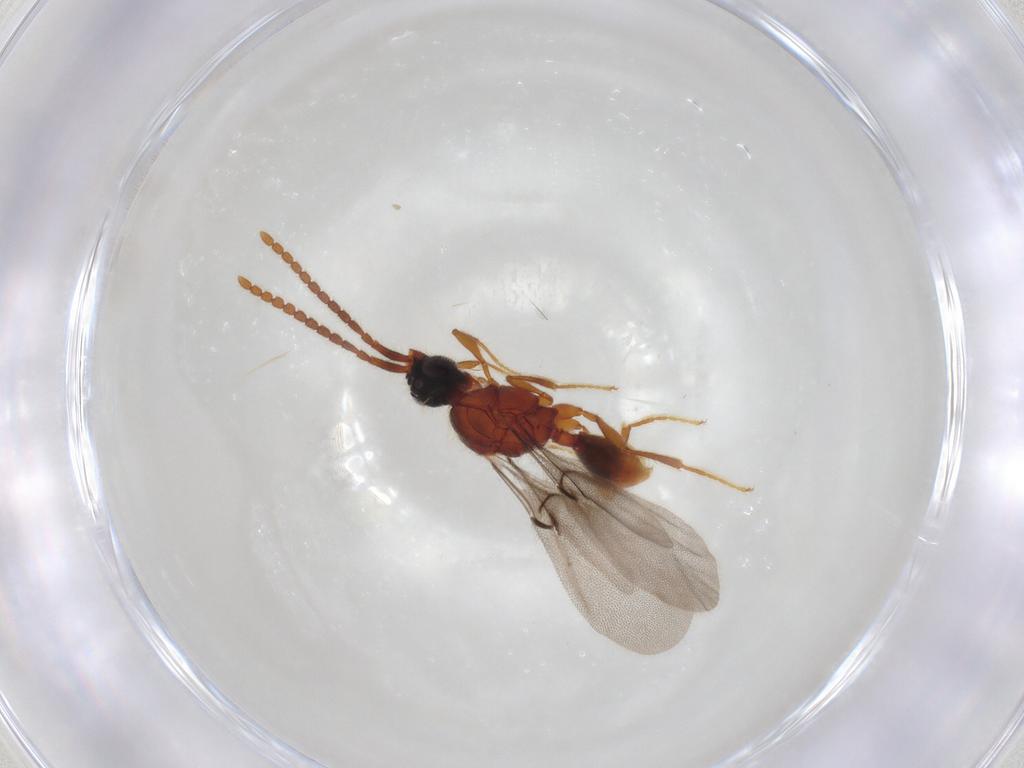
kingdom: Animalia
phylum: Arthropoda
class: Insecta
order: Hymenoptera
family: Diapriidae
